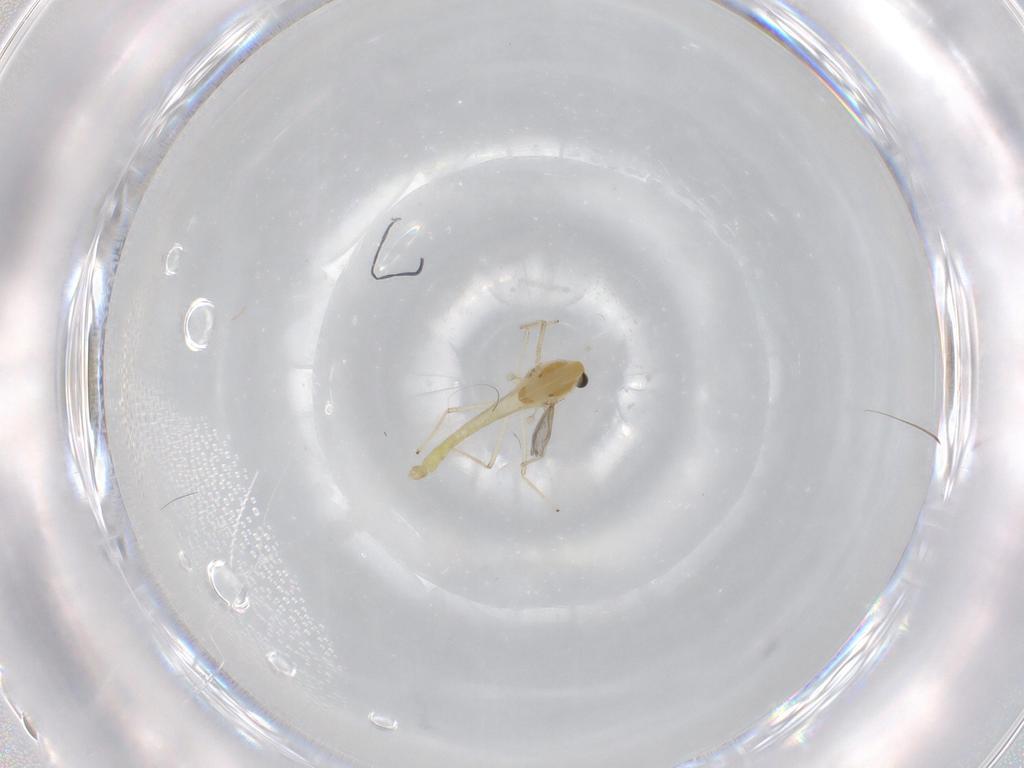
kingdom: Animalia
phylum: Arthropoda
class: Insecta
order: Diptera
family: Chironomidae
